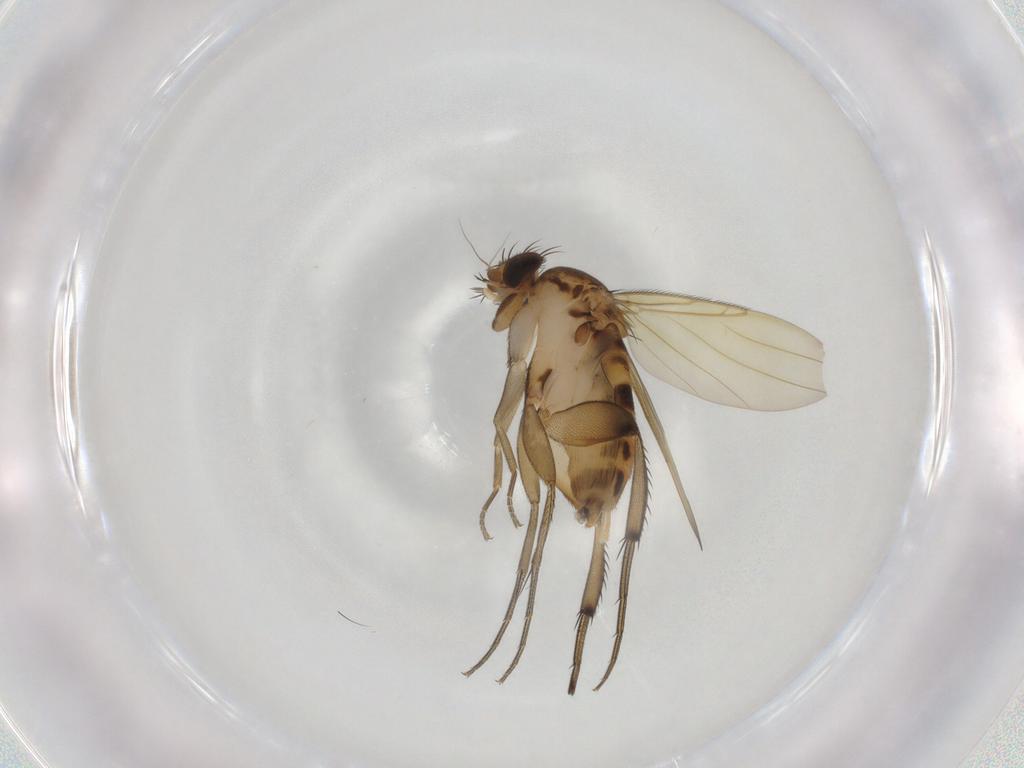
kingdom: Animalia
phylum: Arthropoda
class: Insecta
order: Diptera
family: Phoridae
